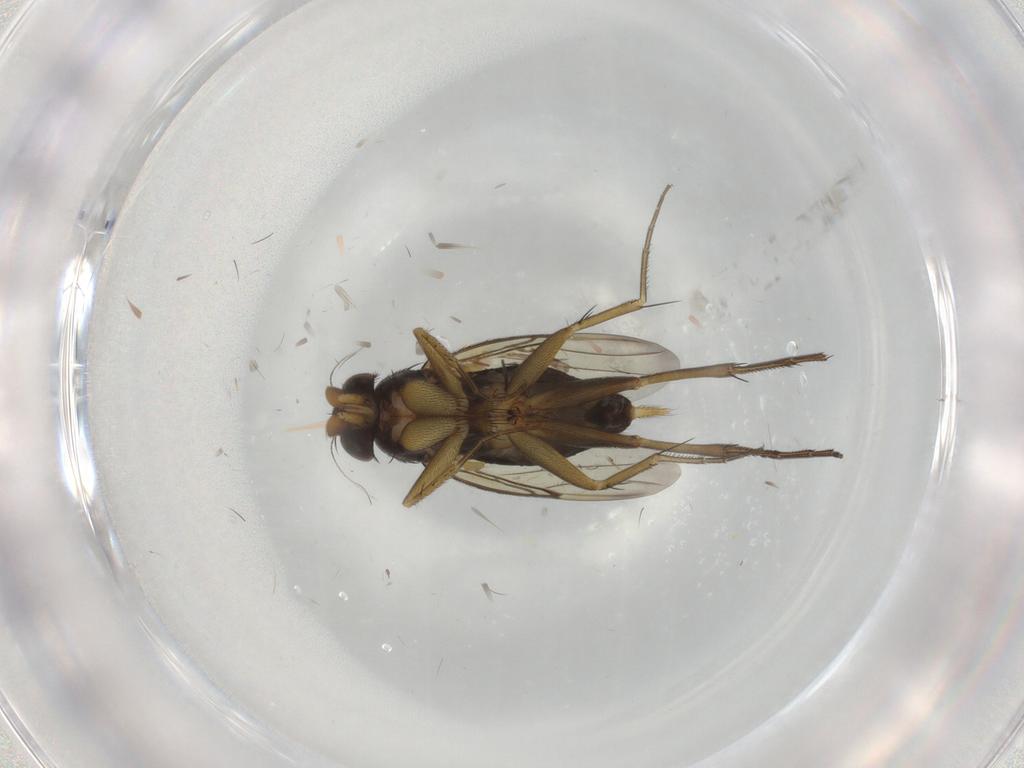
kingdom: Animalia
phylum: Arthropoda
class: Insecta
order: Diptera
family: Phoridae
